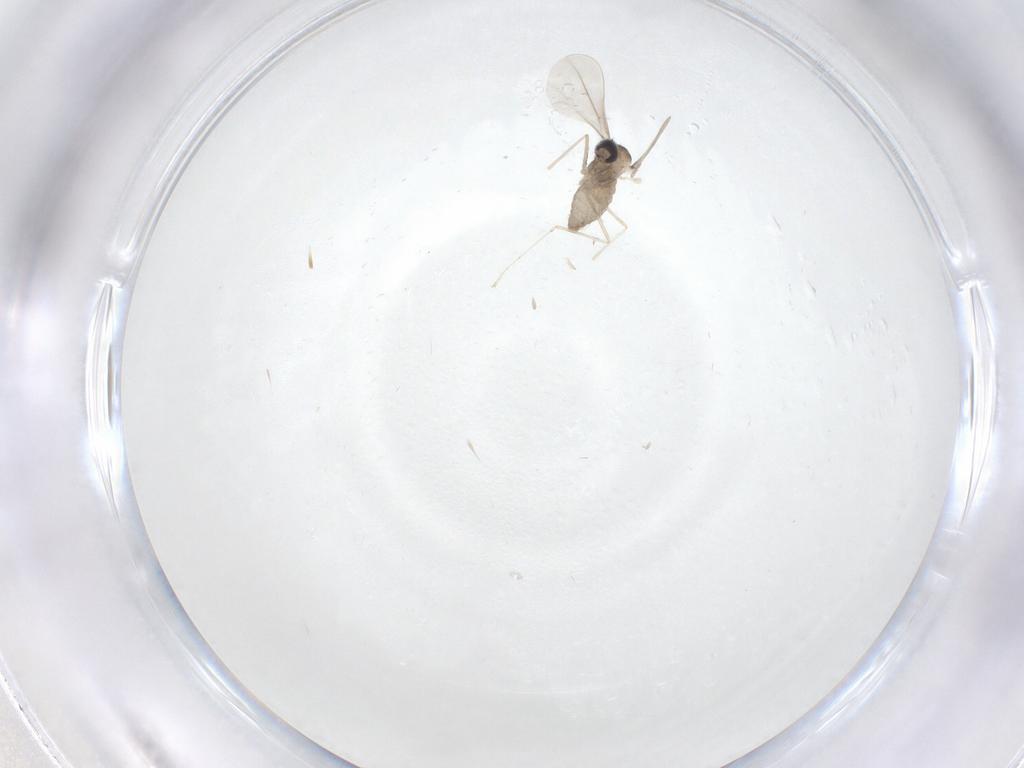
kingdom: Animalia
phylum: Arthropoda
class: Insecta
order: Diptera
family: Cecidomyiidae
